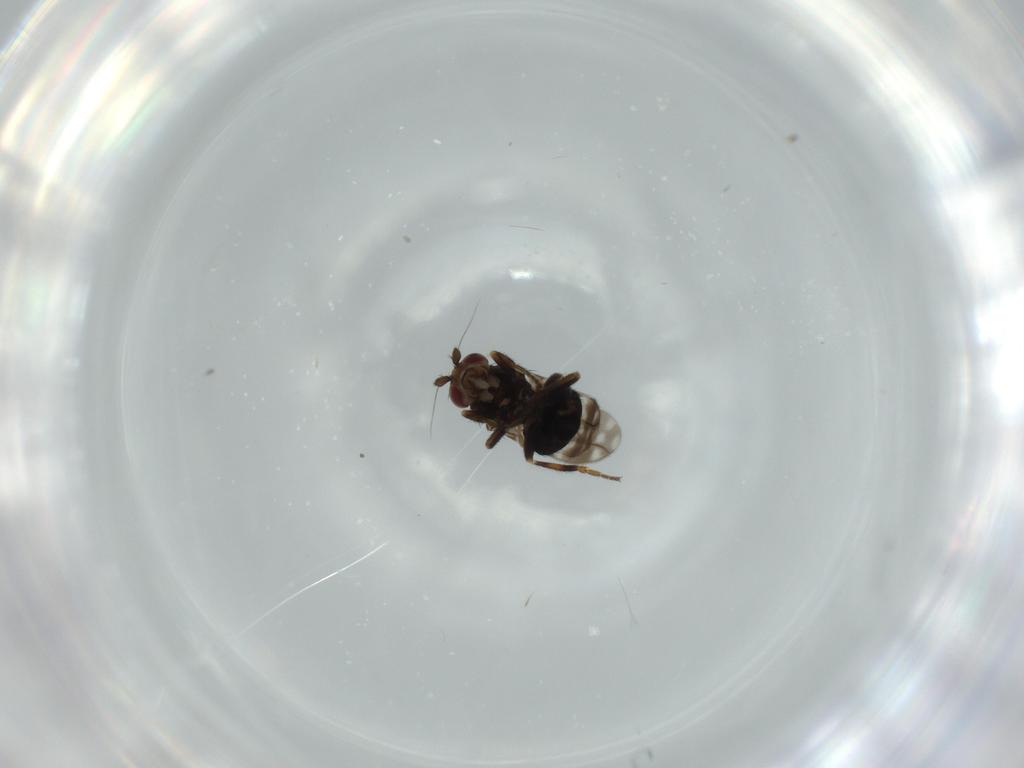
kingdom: Animalia
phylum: Arthropoda
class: Insecta
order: Diptera
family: Sphaeroceridae
